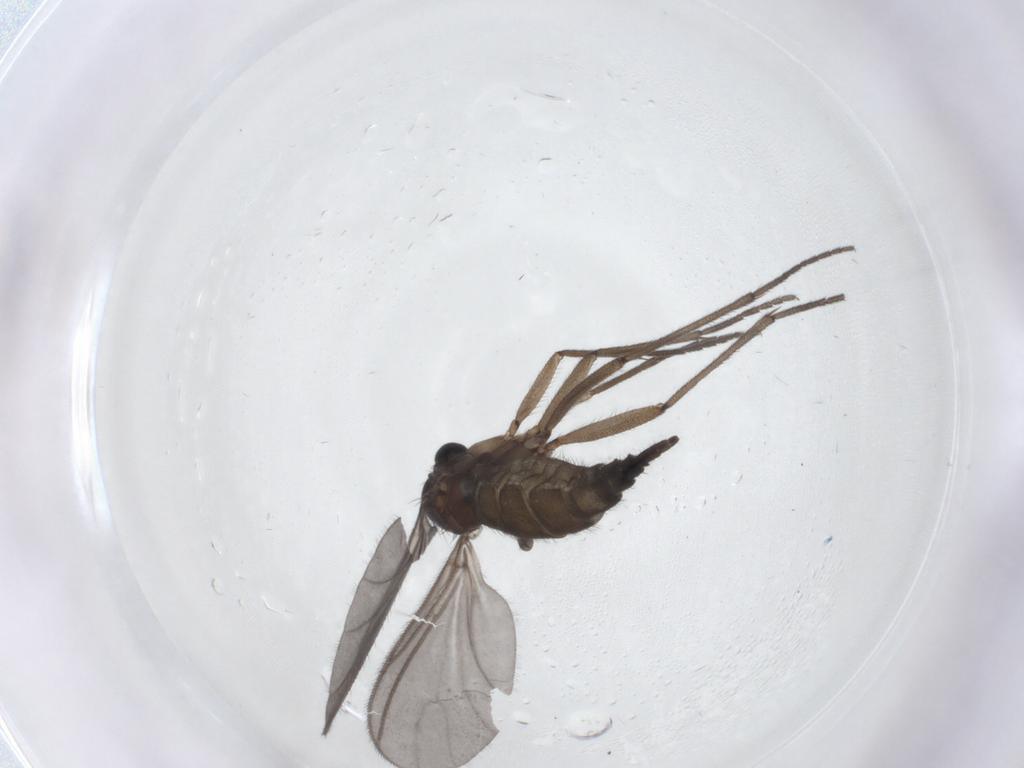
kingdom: Animalia
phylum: Arthropoda
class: Insecta
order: Diptera
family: Sciaridae
